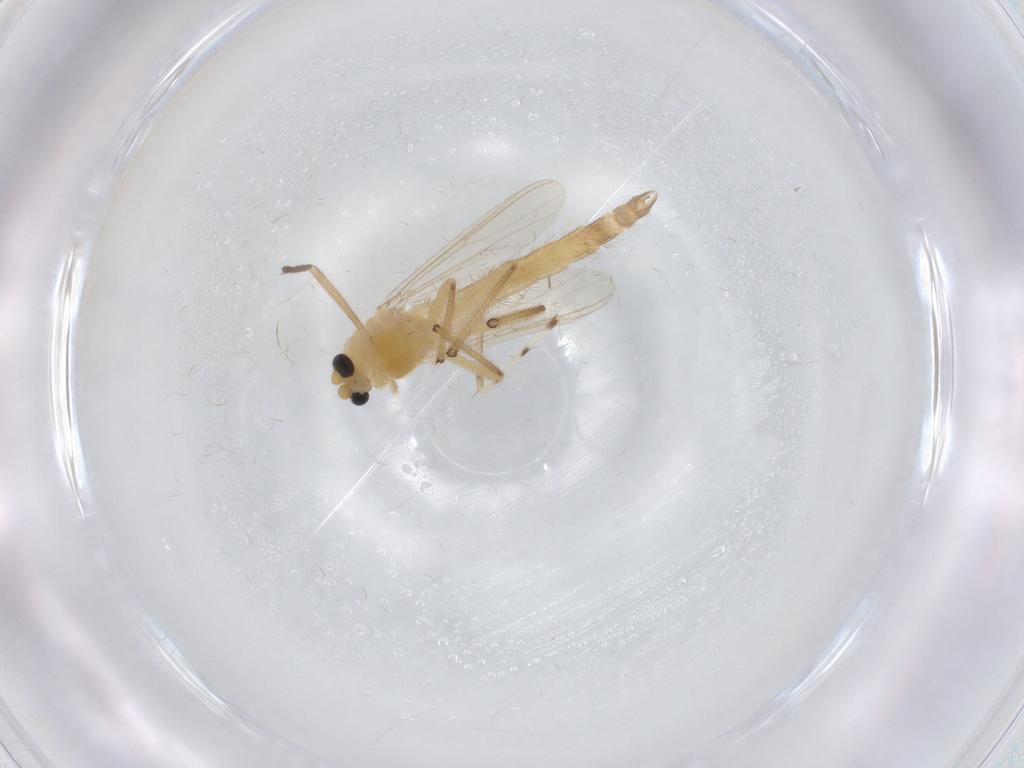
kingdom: Animalia
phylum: Arthropoda
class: Insecta
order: Diptera
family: Chironomidae
